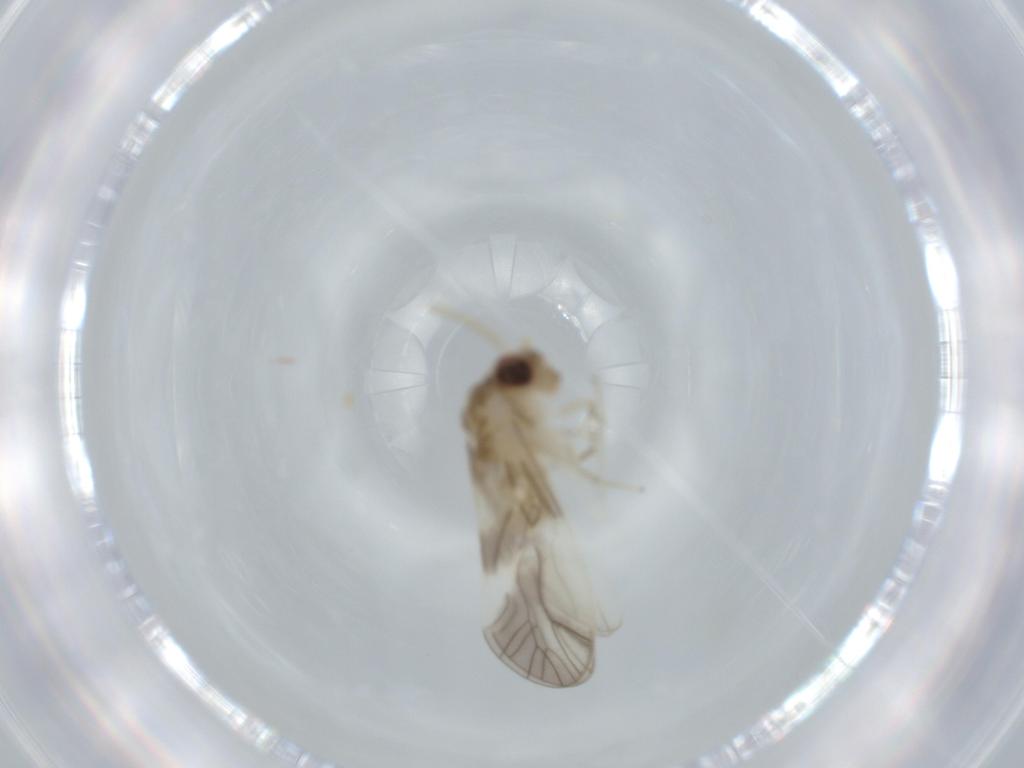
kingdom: Animalia
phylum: Arthropoda
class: Insecta
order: Psocodea
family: Caeciliusidae
